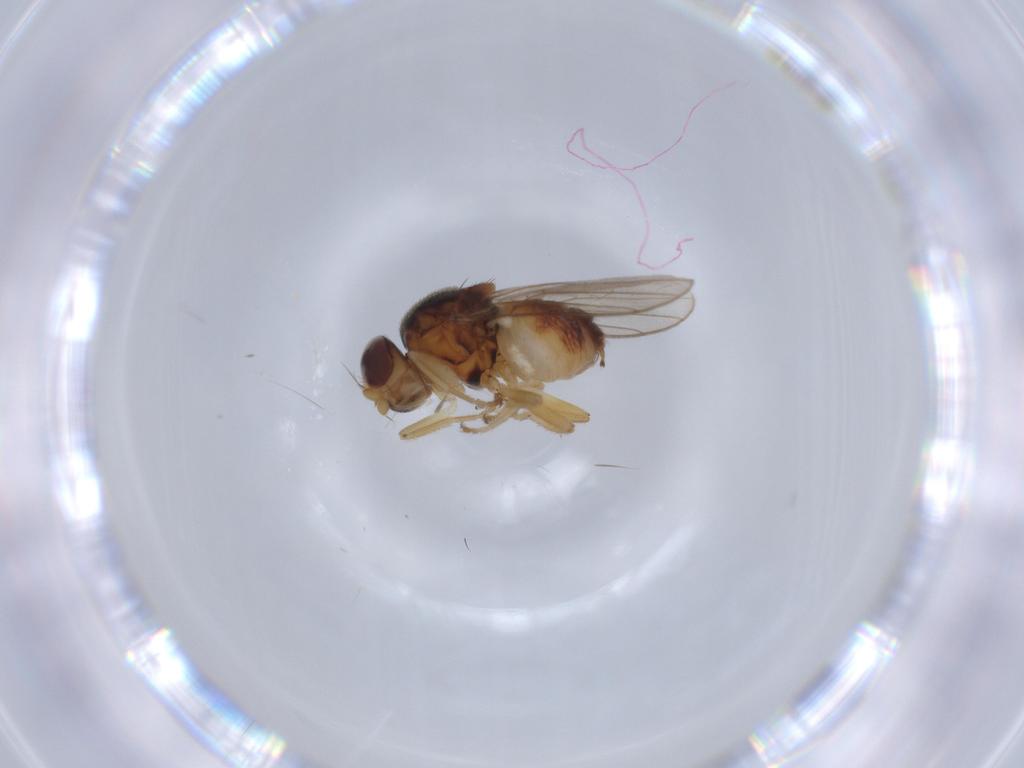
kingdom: Animalia
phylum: Arthropoda
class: Insecta
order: Diptera
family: Chloropidae
